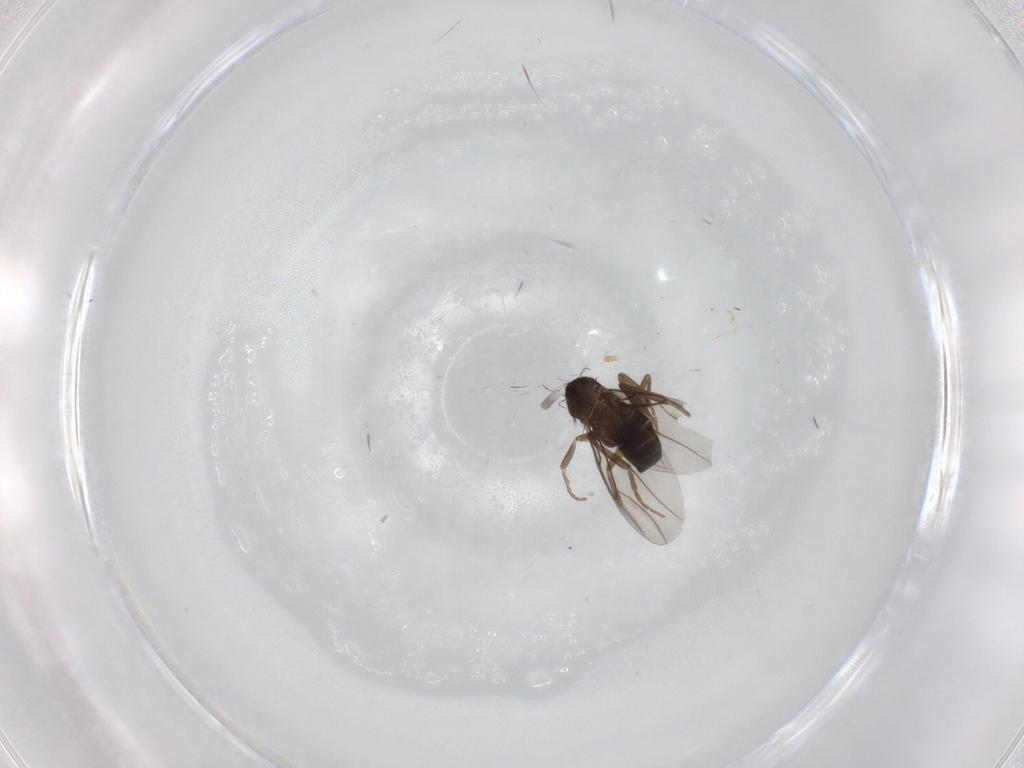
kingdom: Animalia
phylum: Arthropoda
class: Insecta
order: Diptera
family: Phoridae
